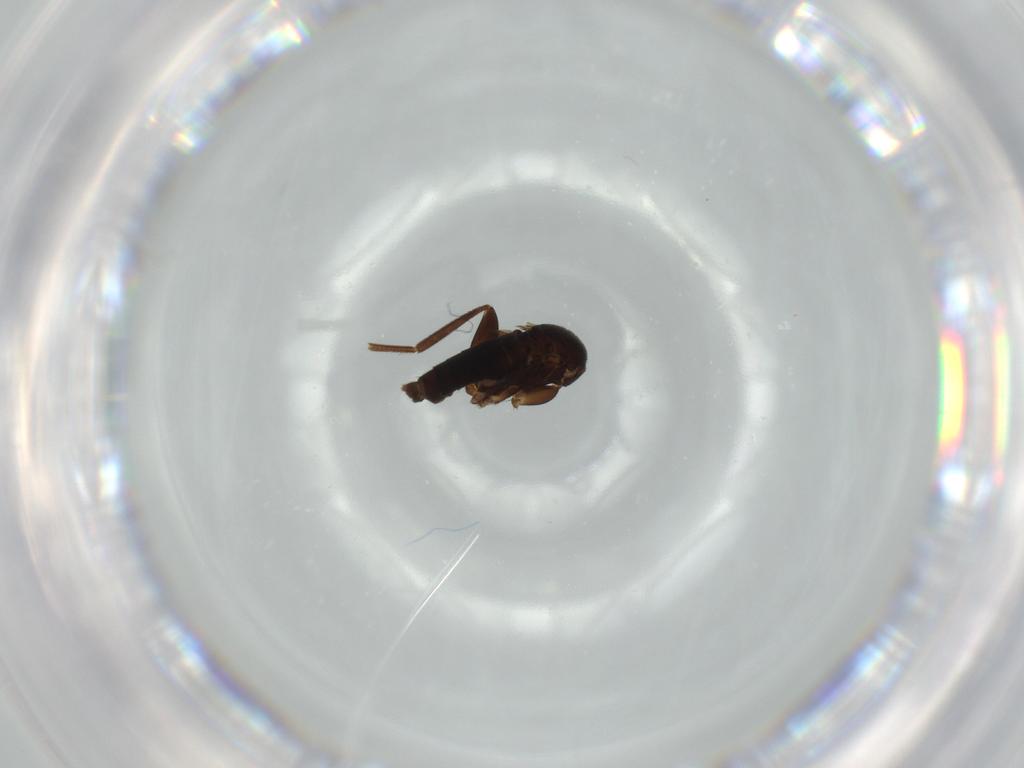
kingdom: Animalia
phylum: Arthropoda
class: Insecta
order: Diptera
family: Phoridae
